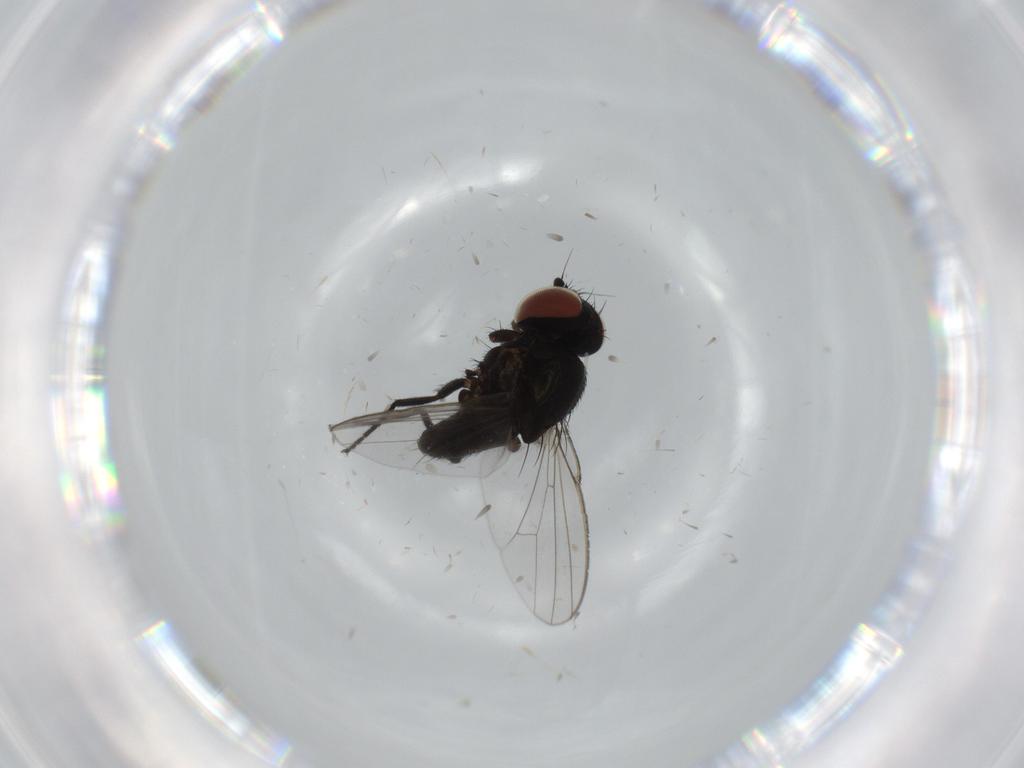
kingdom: Animalia
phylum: Arthropoda
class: Insecta
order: Diptera
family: Milichiidae
